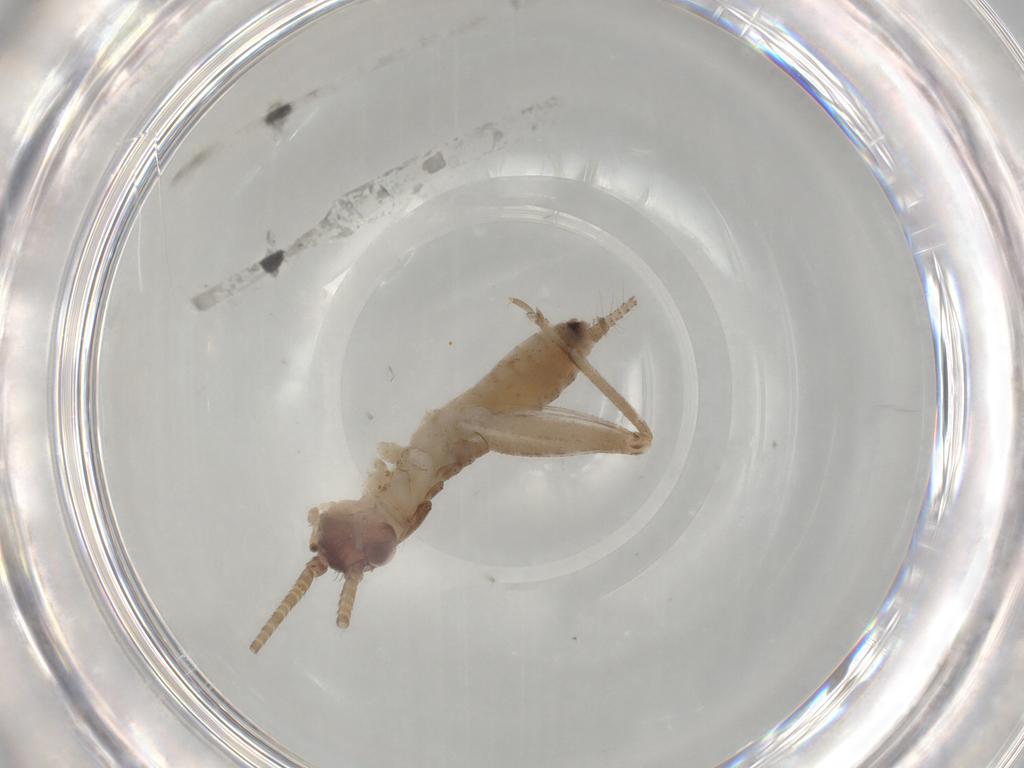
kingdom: Animalia
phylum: Arthropoda
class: Insecta
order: Orthoptera
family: Gryllidae
